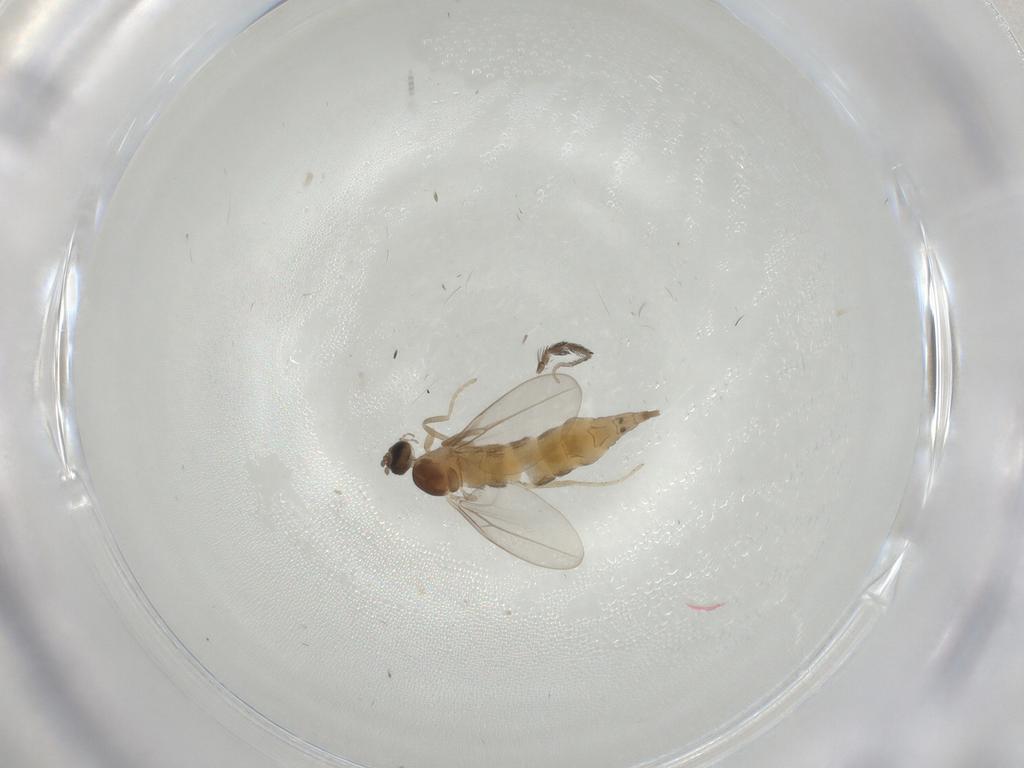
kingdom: Animalia
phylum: Arthropoda
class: Insecta
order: Diptera
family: Cecidomyiidae
